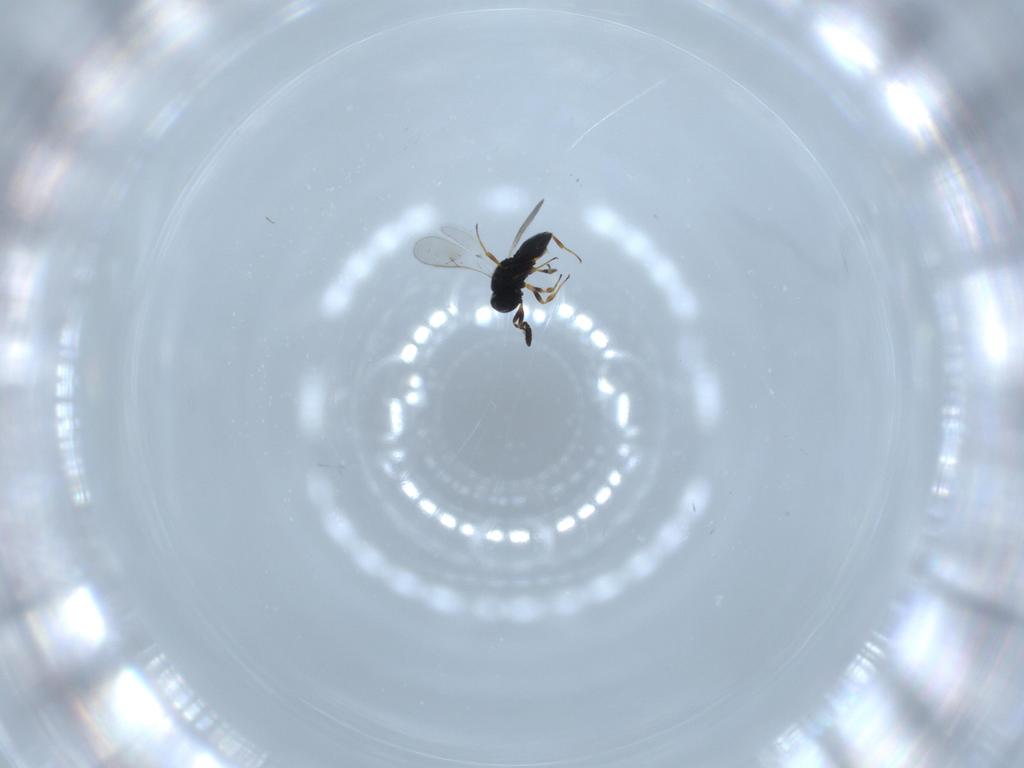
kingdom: Animalia
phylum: Arthropoda
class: Insecta
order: Hymenoptera
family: Scelionidae
